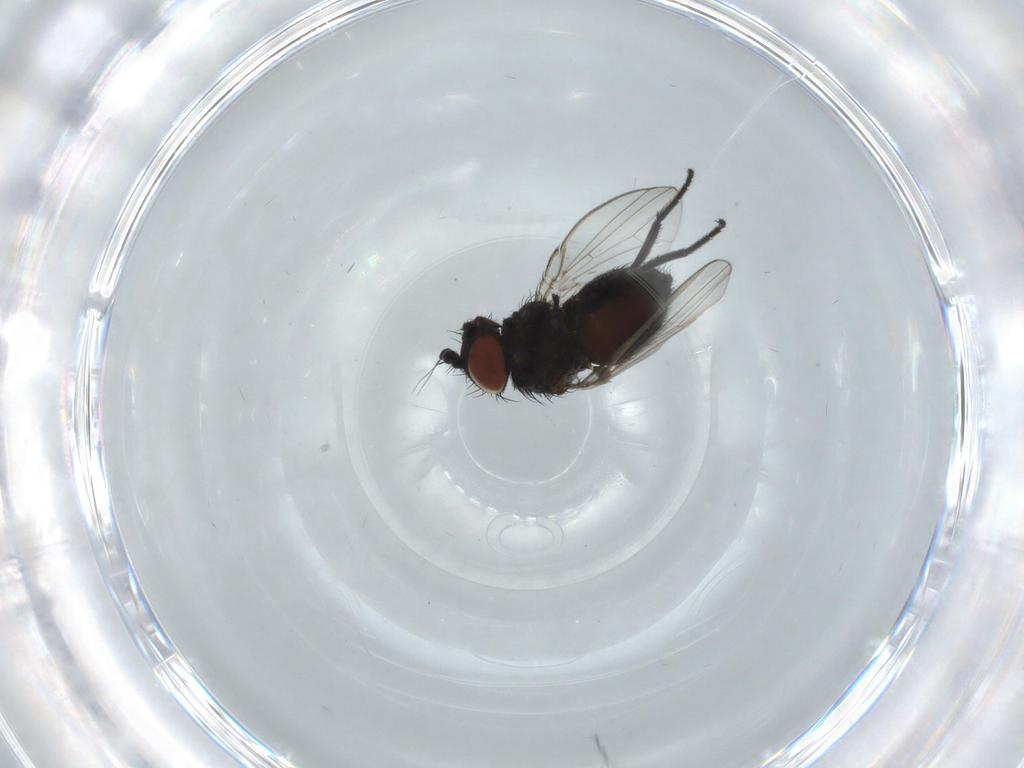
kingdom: Animalia
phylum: Arthropoda
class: Insecta
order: Diptera
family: Milichiidae
